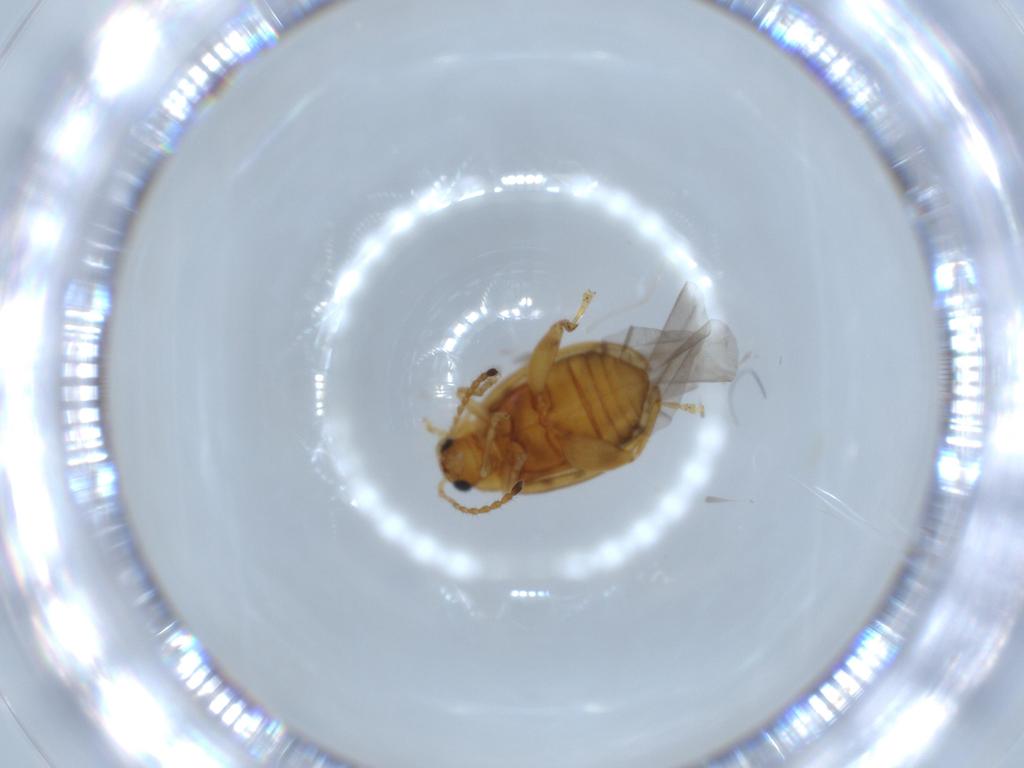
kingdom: Animalia
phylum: Arthropoda
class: Insecta
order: Coleoptera
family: Chrysomelidae
